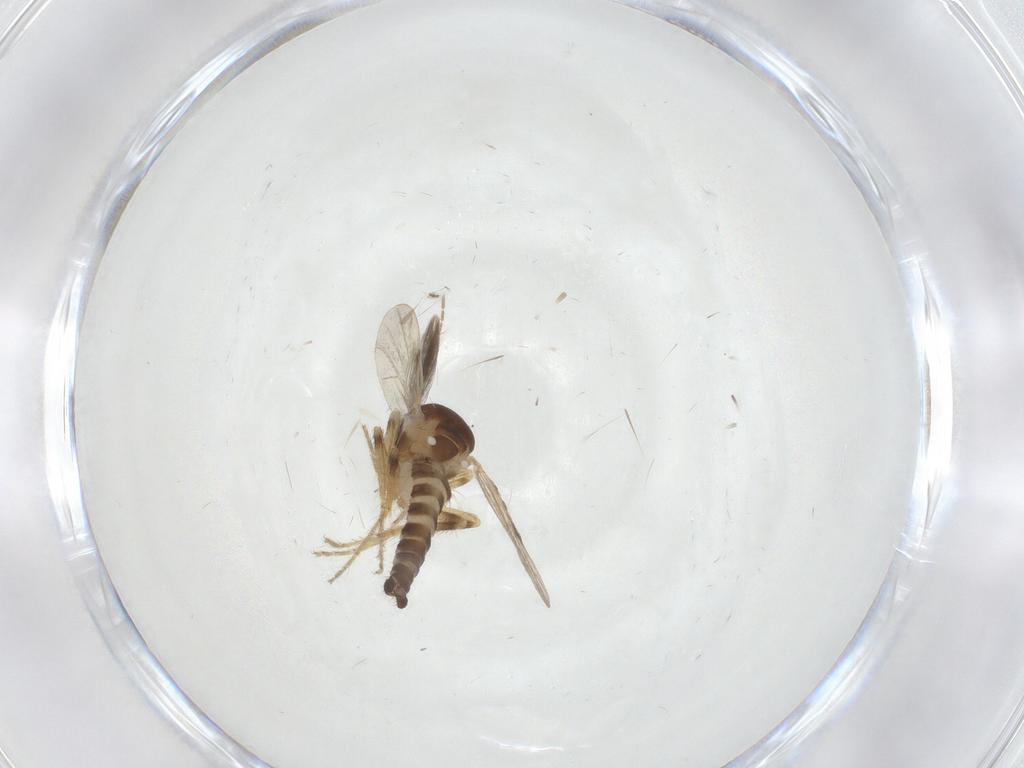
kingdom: Animalia
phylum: Arthropoda
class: Insecta
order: Diptera
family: Ceratopogonidae
